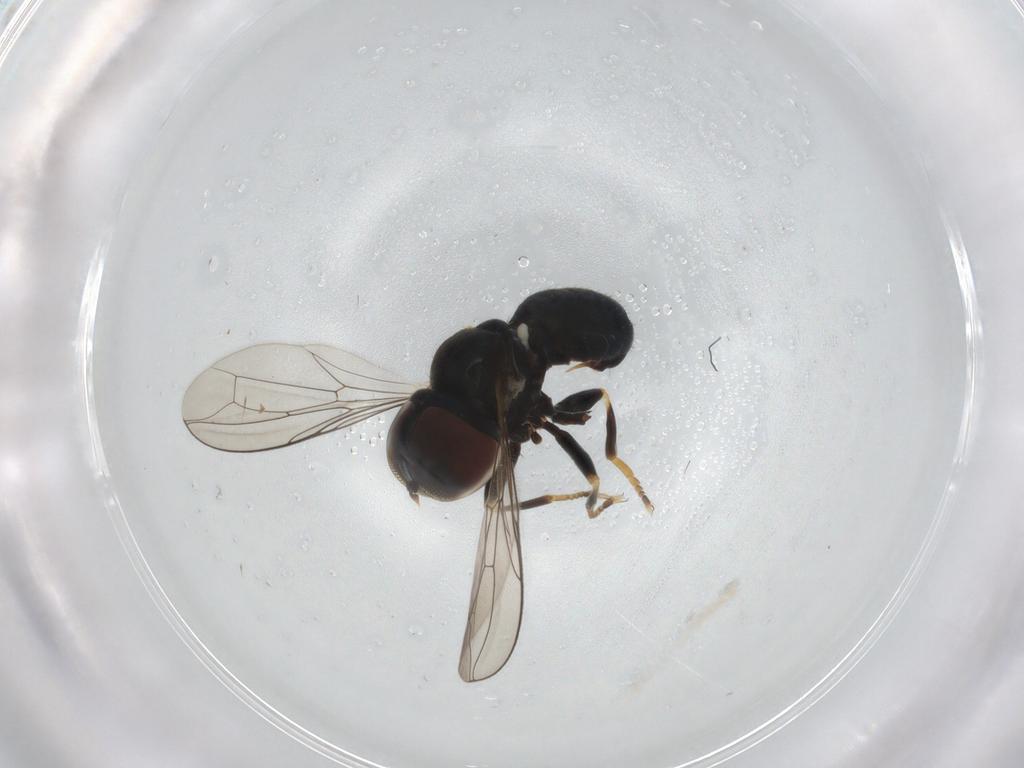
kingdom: Animalia
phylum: Arthropoda
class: Insecta
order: Diptera
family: Pipunculidae
